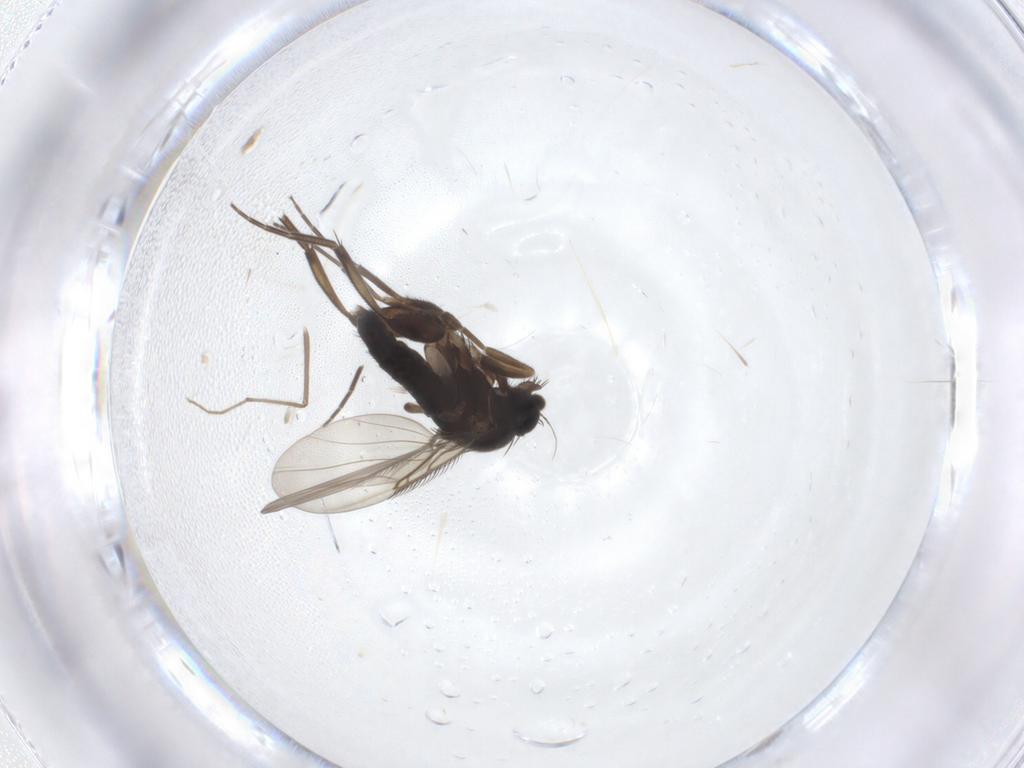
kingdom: Animalia
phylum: Arthropoda
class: Insecta
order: Diptera
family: Phoridae
